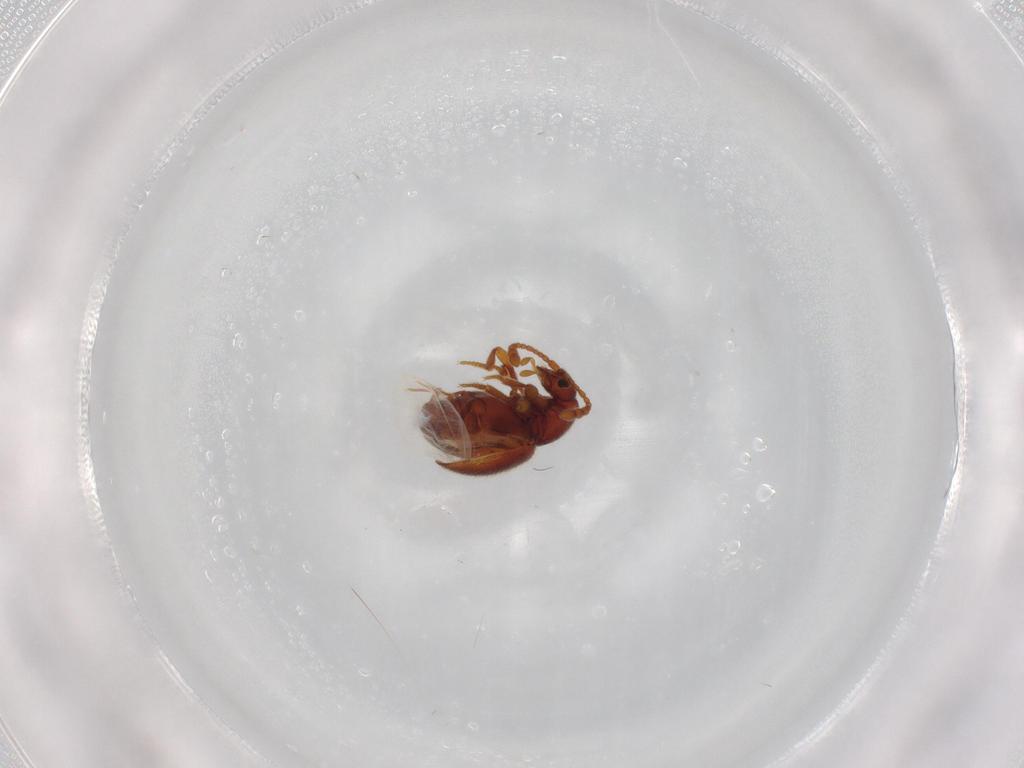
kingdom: Animalia
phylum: Arthropoda
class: Insecta
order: Coleoptera
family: Staphylinidae
